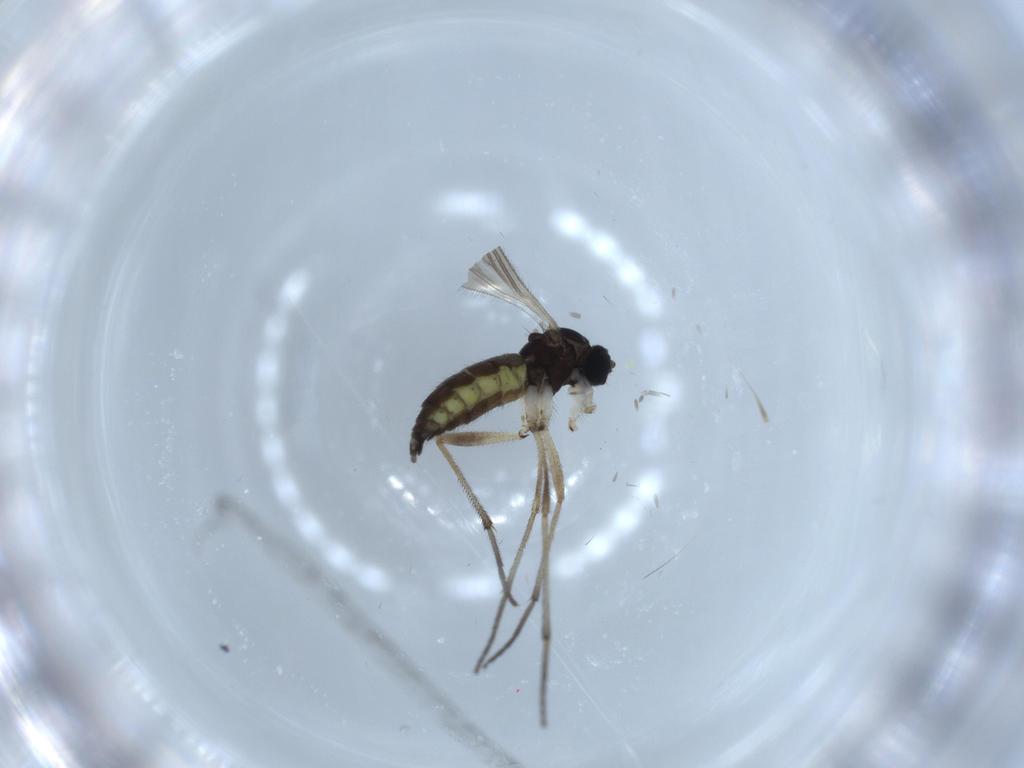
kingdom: Animalia
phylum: Arthropoda
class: Insecta
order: Diptera
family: Sciaridae
